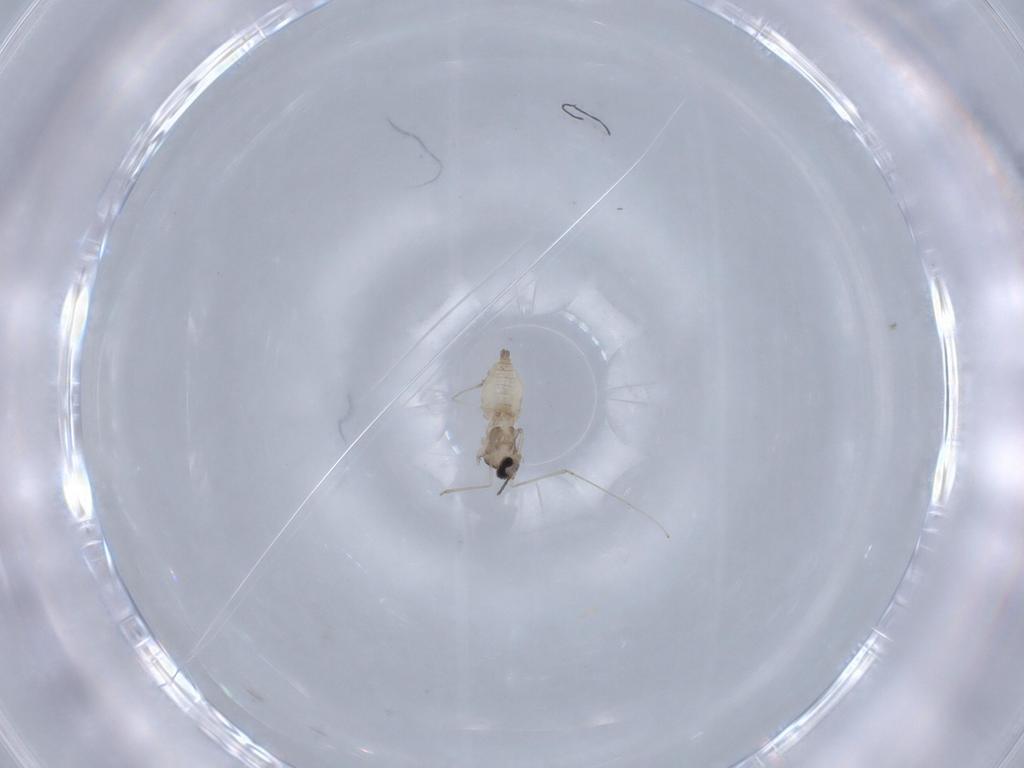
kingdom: Animalia
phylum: Arthropoda
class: Insecta
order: Diptera
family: Cecidomyiidae
